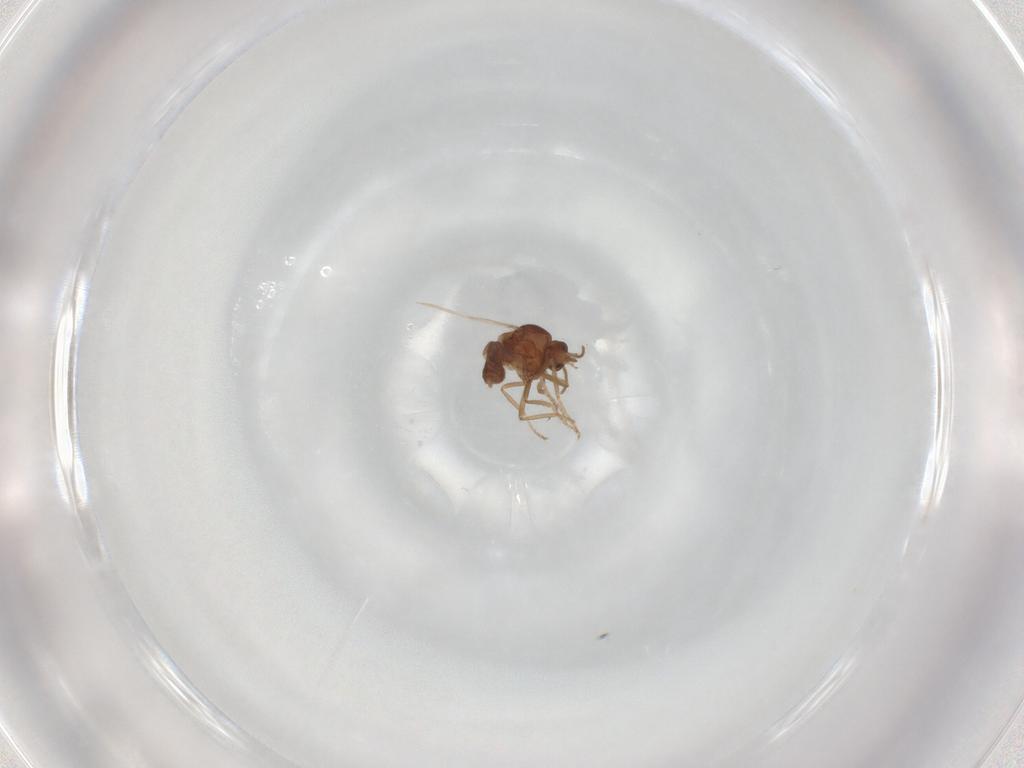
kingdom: Animalia
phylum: Arthropoda
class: Insecta
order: Diptera
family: Ceratopogonidae
